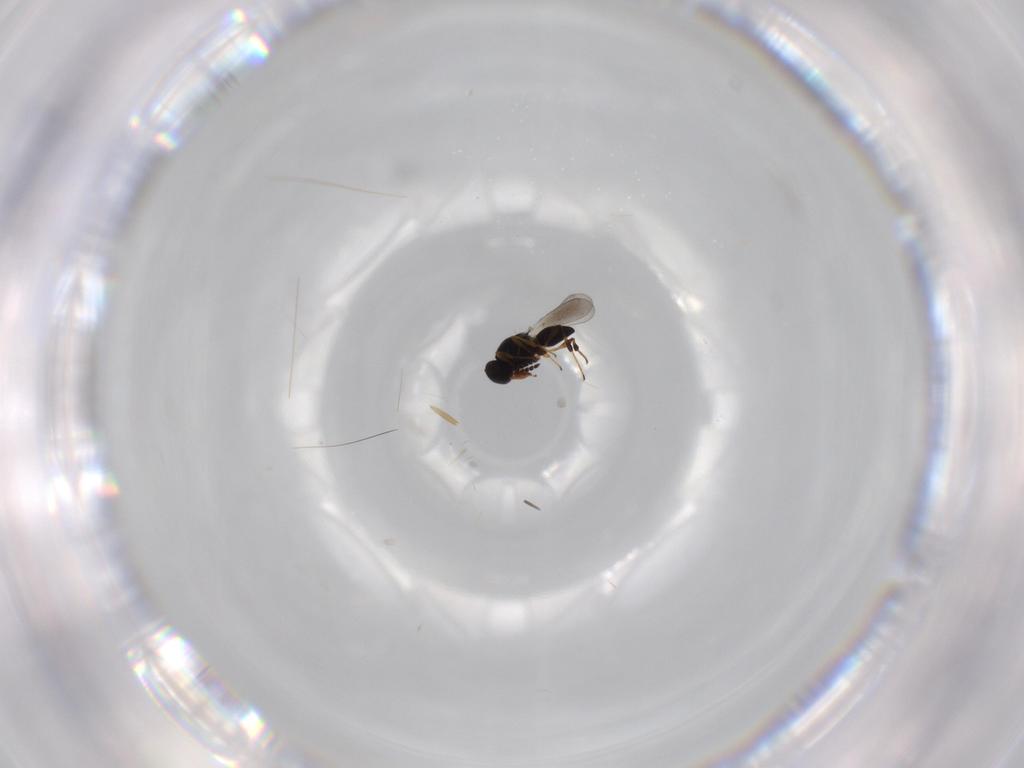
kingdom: Animalia
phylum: Arthropoda
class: Insecta
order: Hymenoptera
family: Platygastridae
